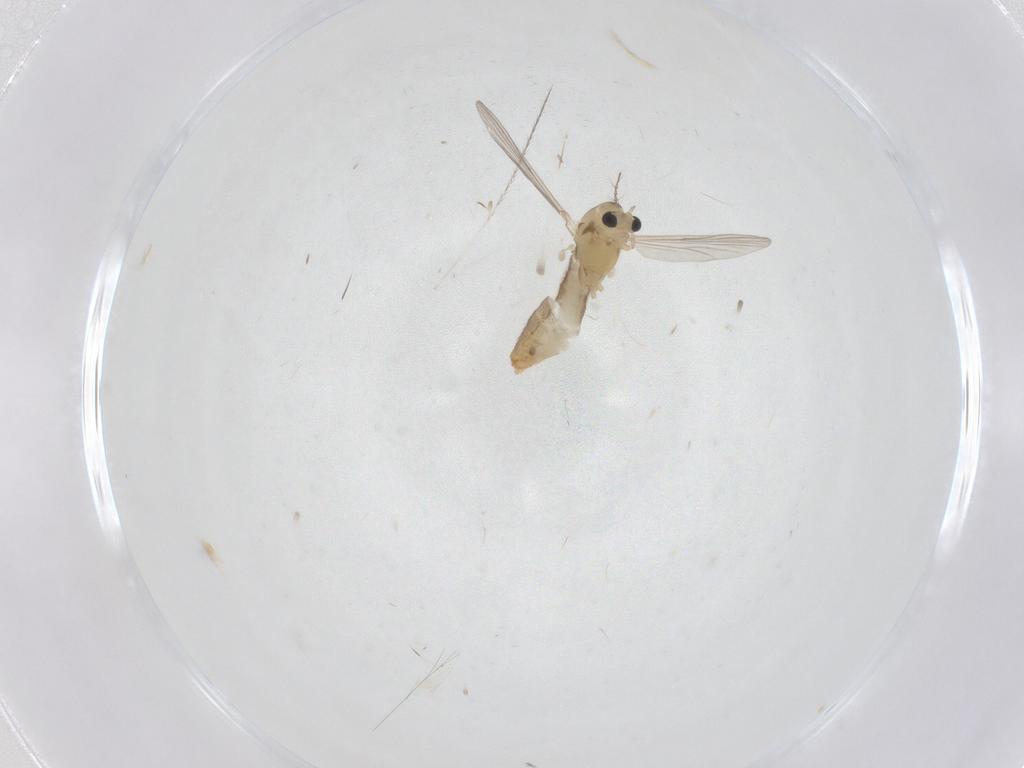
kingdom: Animalia
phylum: Arthropoda
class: Insecta
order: Diptera
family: Chironomidae
